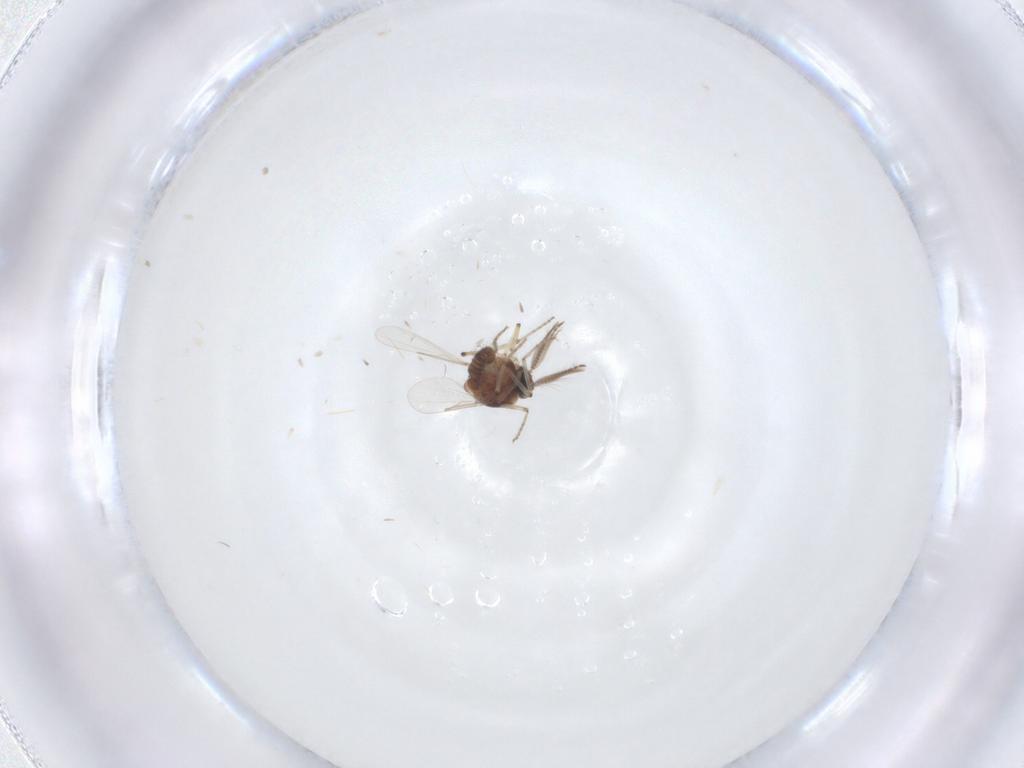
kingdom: Animalia
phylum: Arthropoda
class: Insecta
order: Diptera
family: Ceratopogonidae
